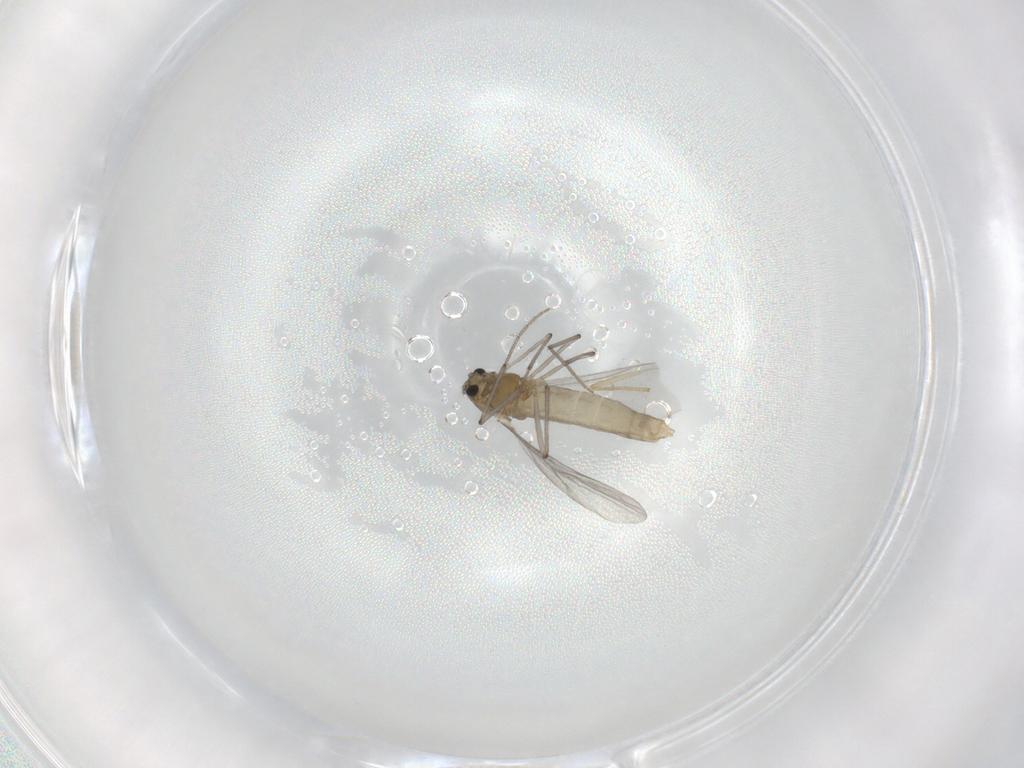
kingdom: Animalia
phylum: Arthropoda
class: Insecta
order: Diptera
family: Chironomidae
